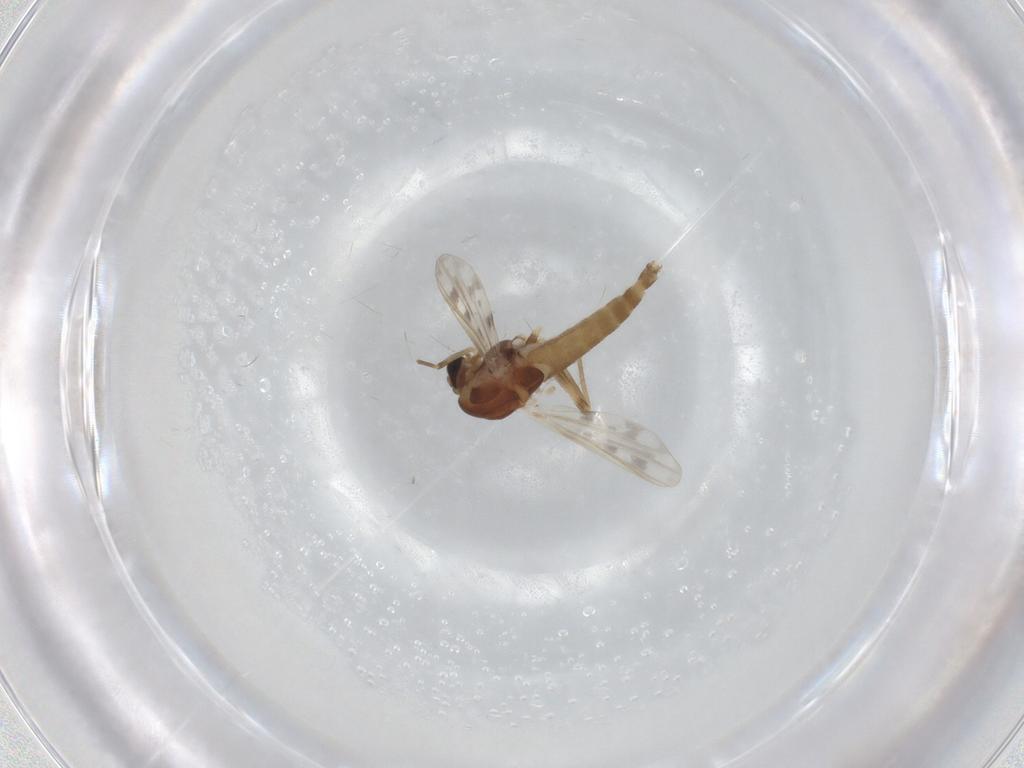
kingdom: Animalia
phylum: Arthropoda
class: Insecta
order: Diptera
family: Chironomidae
